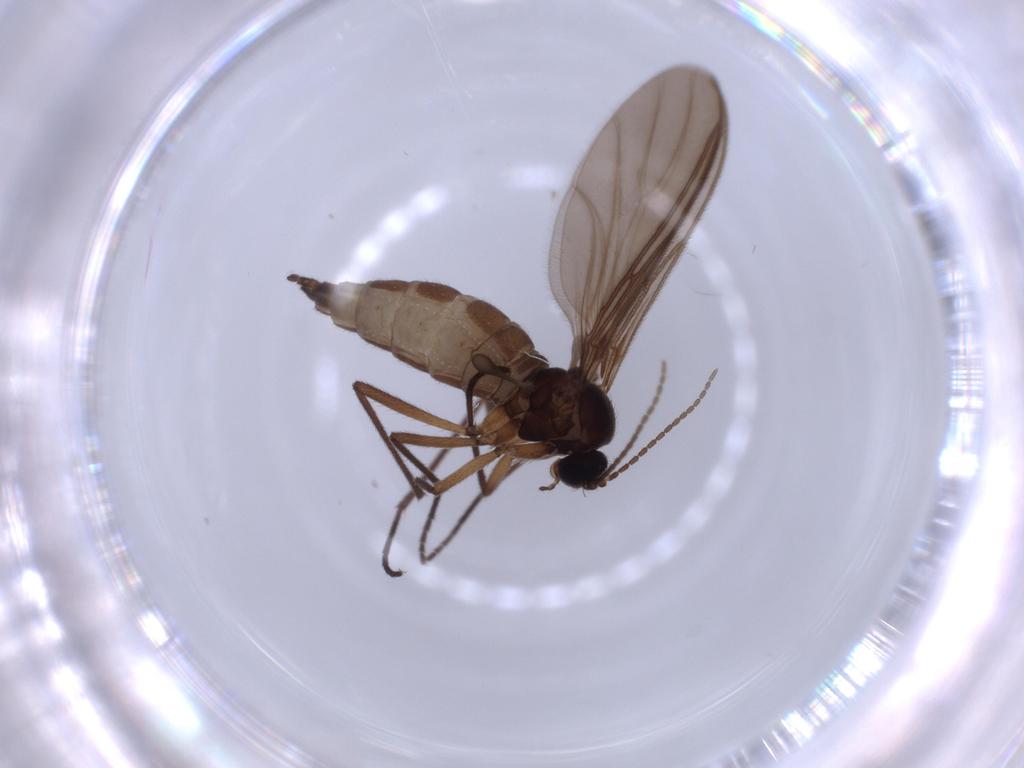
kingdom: Animalia
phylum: Arthropoda
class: Insecta
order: Diptera
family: Sciaridae
